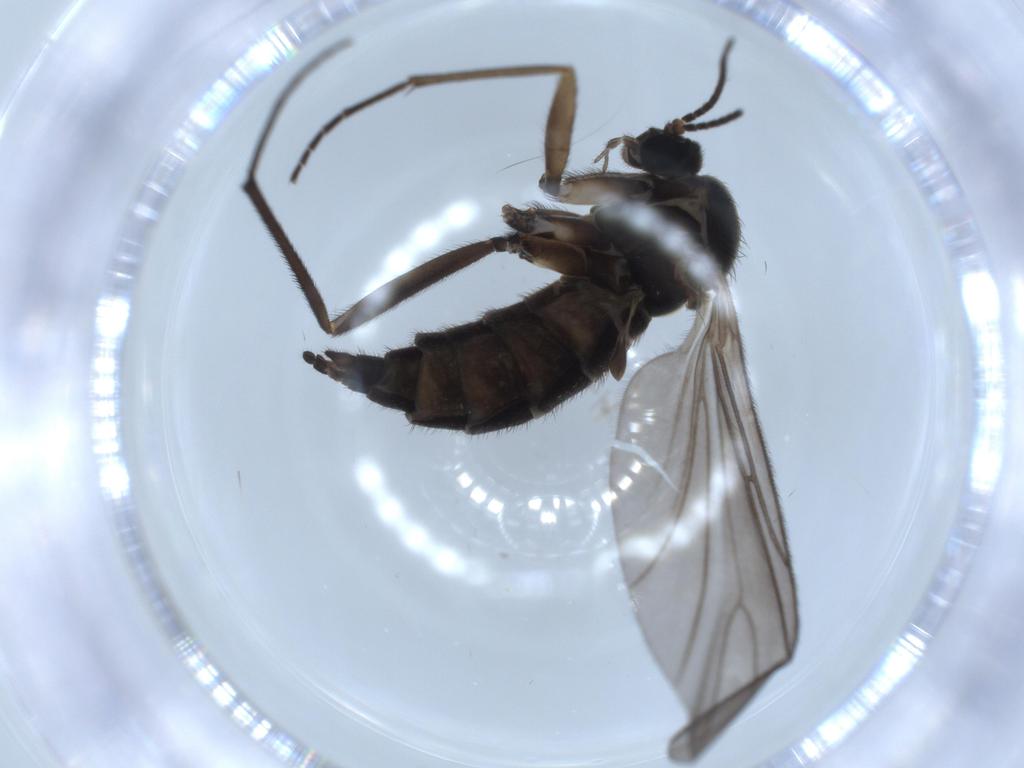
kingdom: Animalia
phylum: Arthropoda
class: Insecta
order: Diptera
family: Sciaridae
